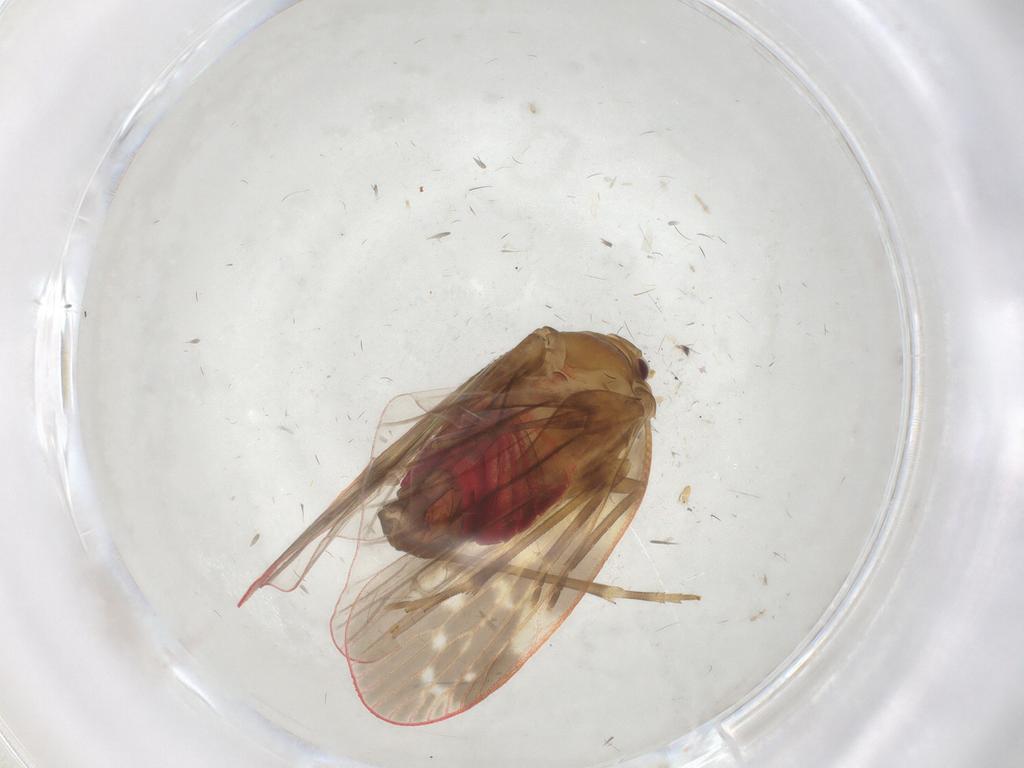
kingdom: Animalia
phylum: Arthropoda
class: Insecta
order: Hemiptera
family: Achilidae
